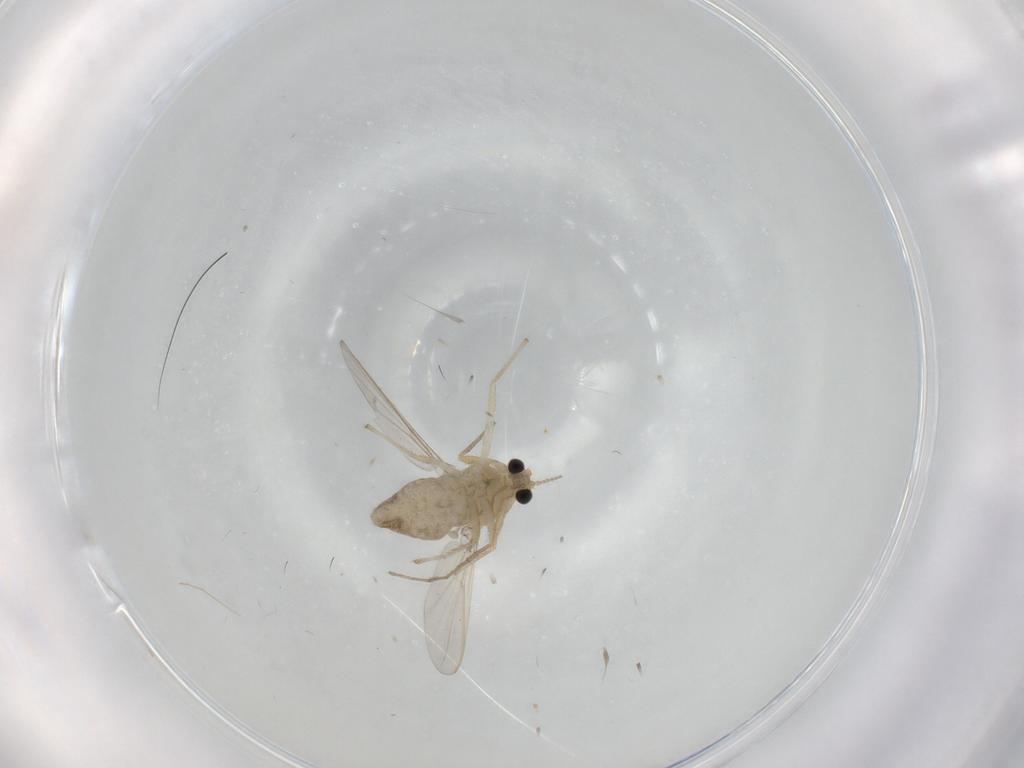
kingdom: Animalia
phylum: Arthropoda
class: Insecta
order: Diptera
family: Chironomidae
